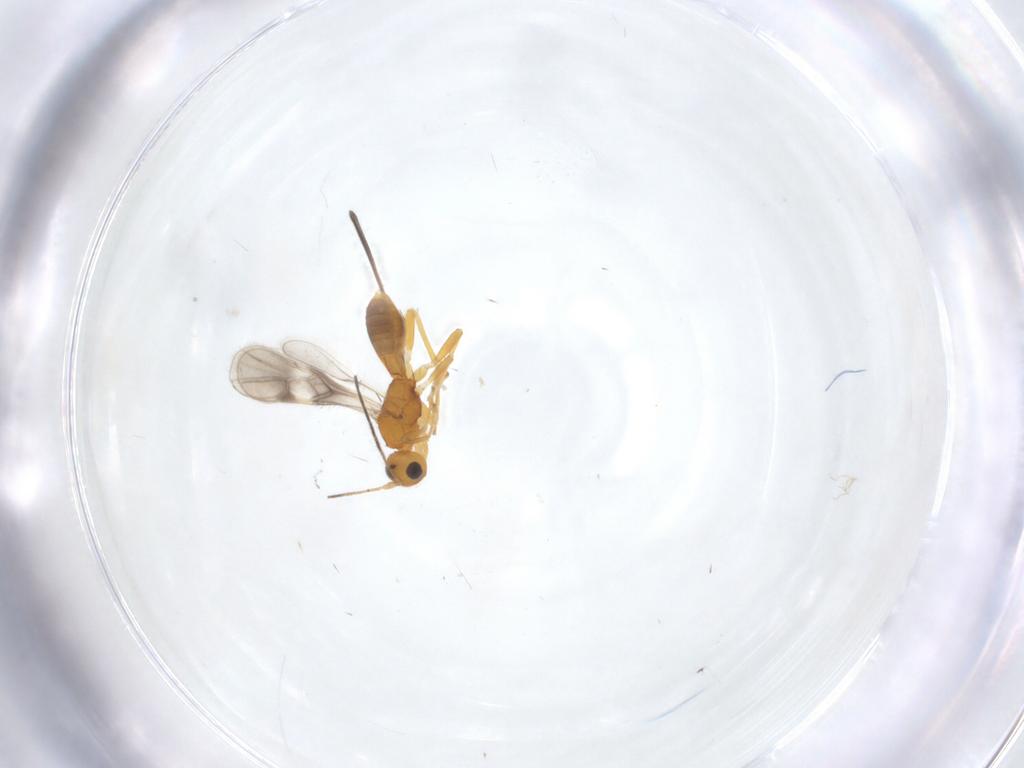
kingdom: Animalia
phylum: Arthropoda
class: Insecta
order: Hymenoptera
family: Braconidae
